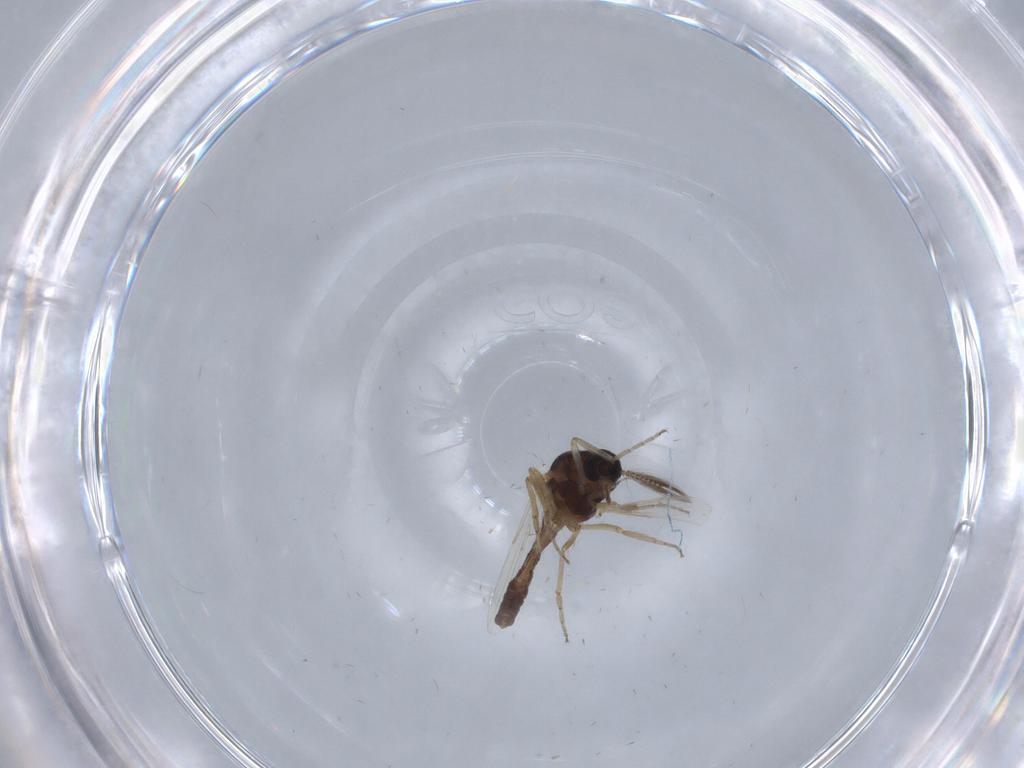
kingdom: Animalia
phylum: Arthropoda
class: Insecta
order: Diptera
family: Ceratopogonidae
